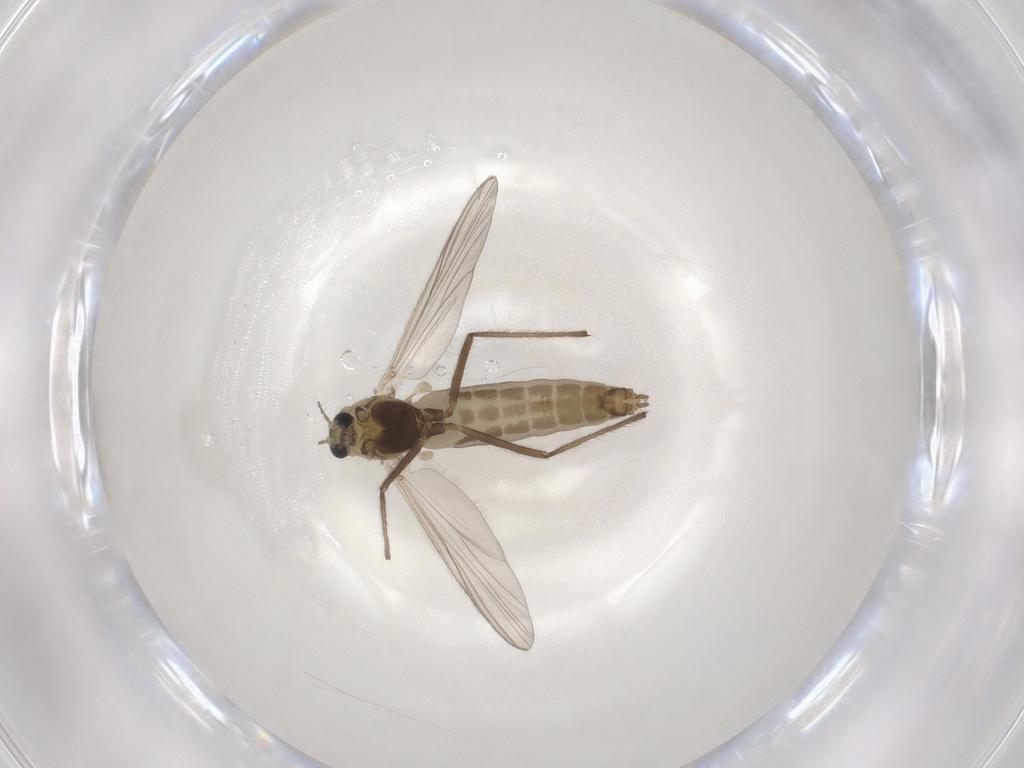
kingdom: Animalia
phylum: Arthropoda
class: Insecta
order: Diptera
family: Chironomidae
